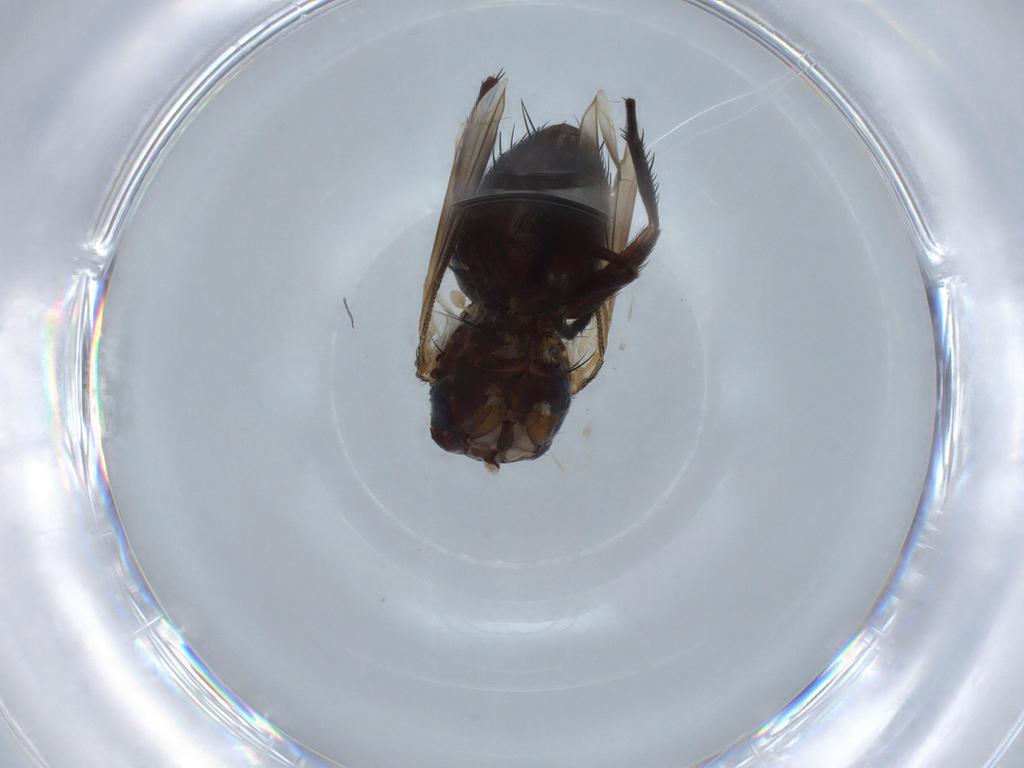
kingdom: Animalia
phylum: Arthropoda
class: Insecta
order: Diptera
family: Tachinidae
